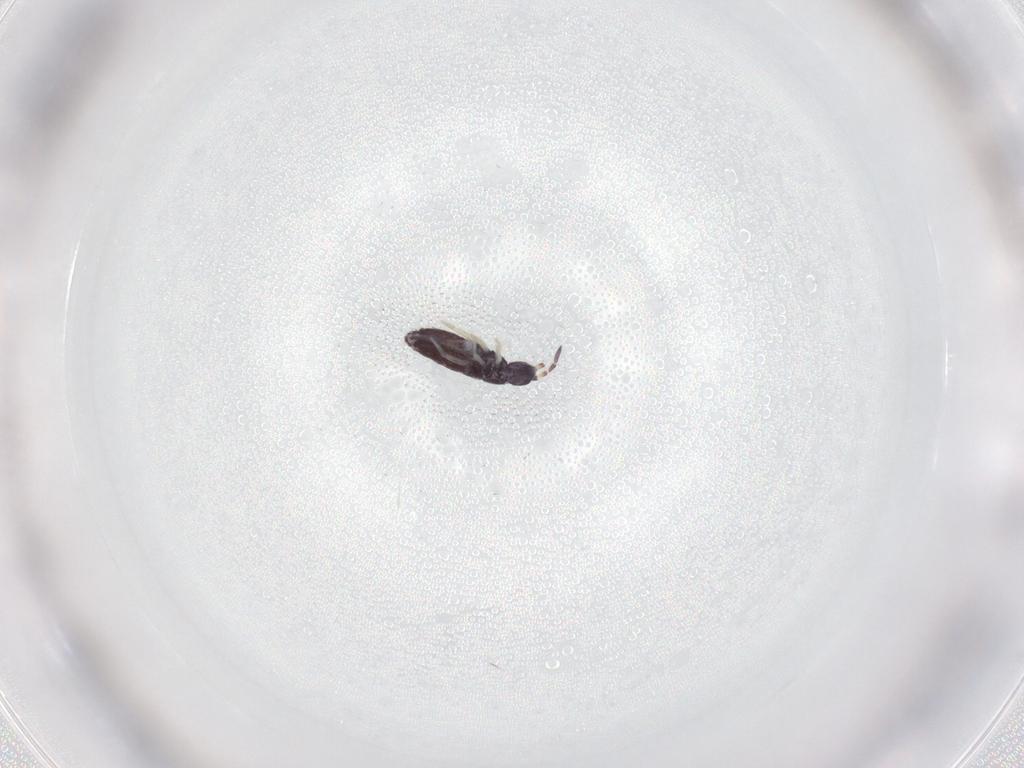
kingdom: Animalia
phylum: Arthropoda
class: Collembola
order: Entomobryomorpha
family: Entomobryidae
